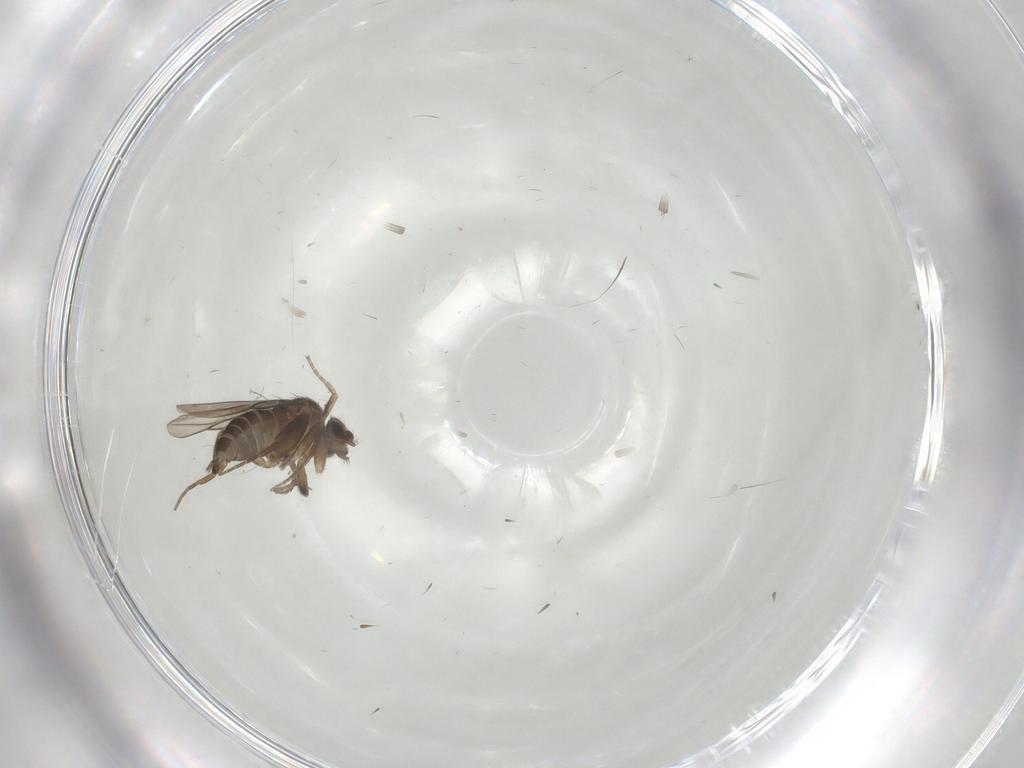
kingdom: Animalia
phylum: Arthropoda
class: Insecta
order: Diptera
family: Phoridae
